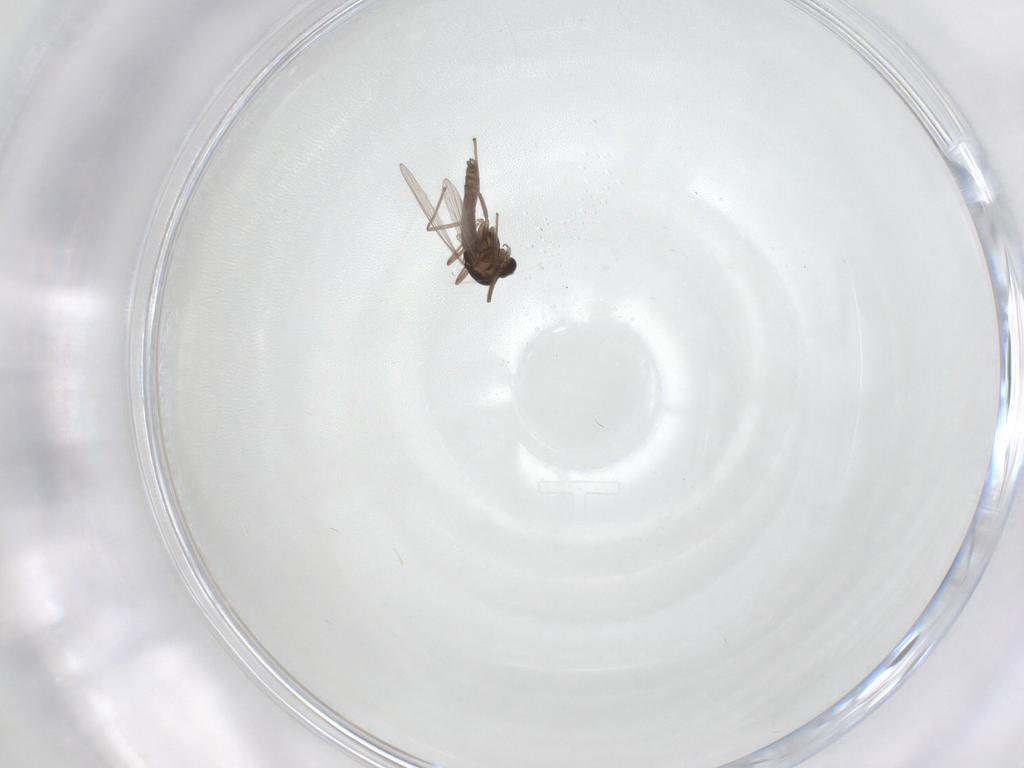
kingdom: Animalia
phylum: Arthropoda
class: Insecta
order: Diptera
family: Chironomidae
